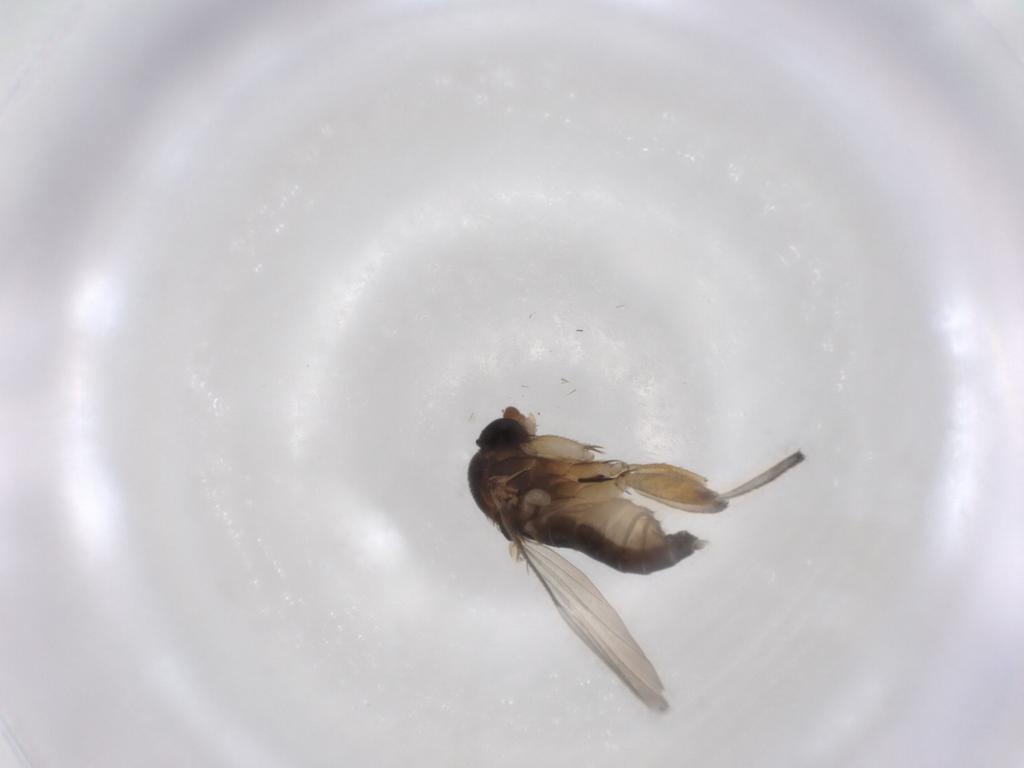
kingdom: Animalia
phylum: Arthropoda
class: Insecta
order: Diptera
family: Phoridae
